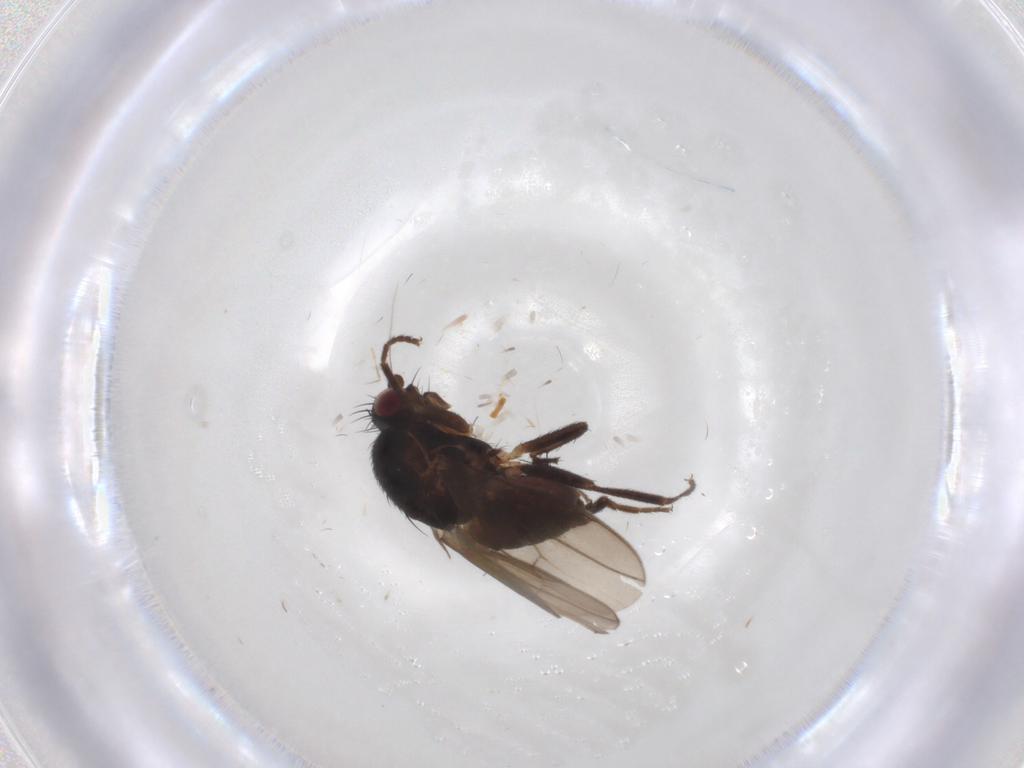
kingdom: Animalia
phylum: Arthropoda
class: Insecta
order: Diptera
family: Sphaeroceridae
